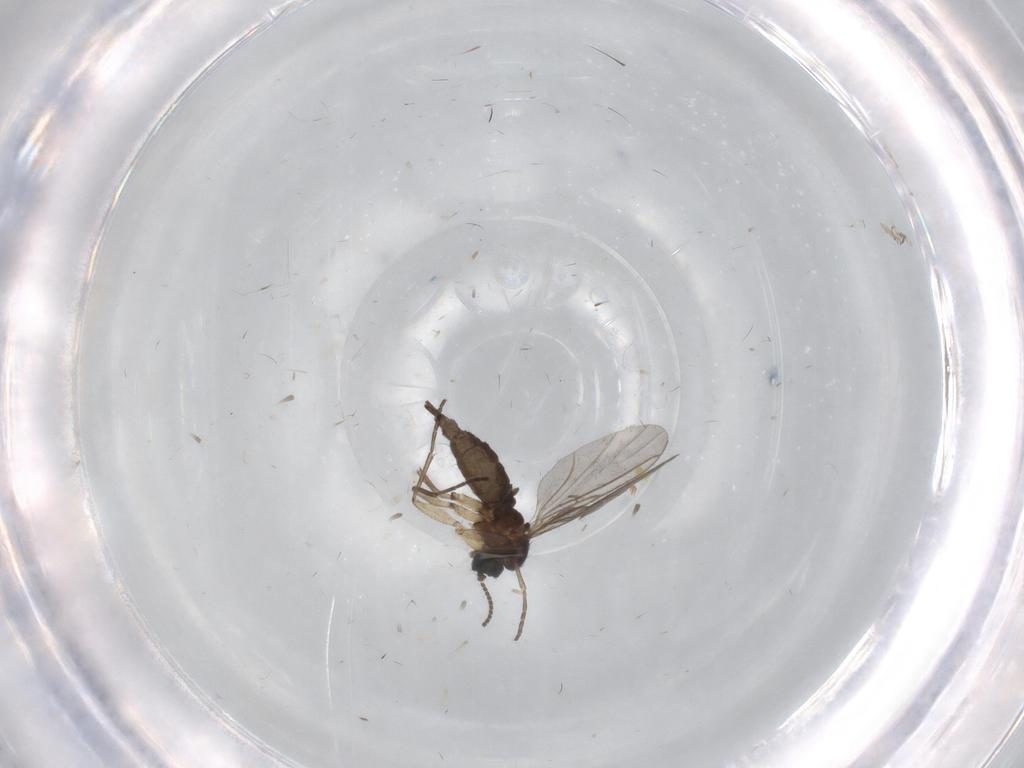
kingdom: Animalia
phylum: Arthropoda
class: Insecta
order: Diptera
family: Sciaridae
